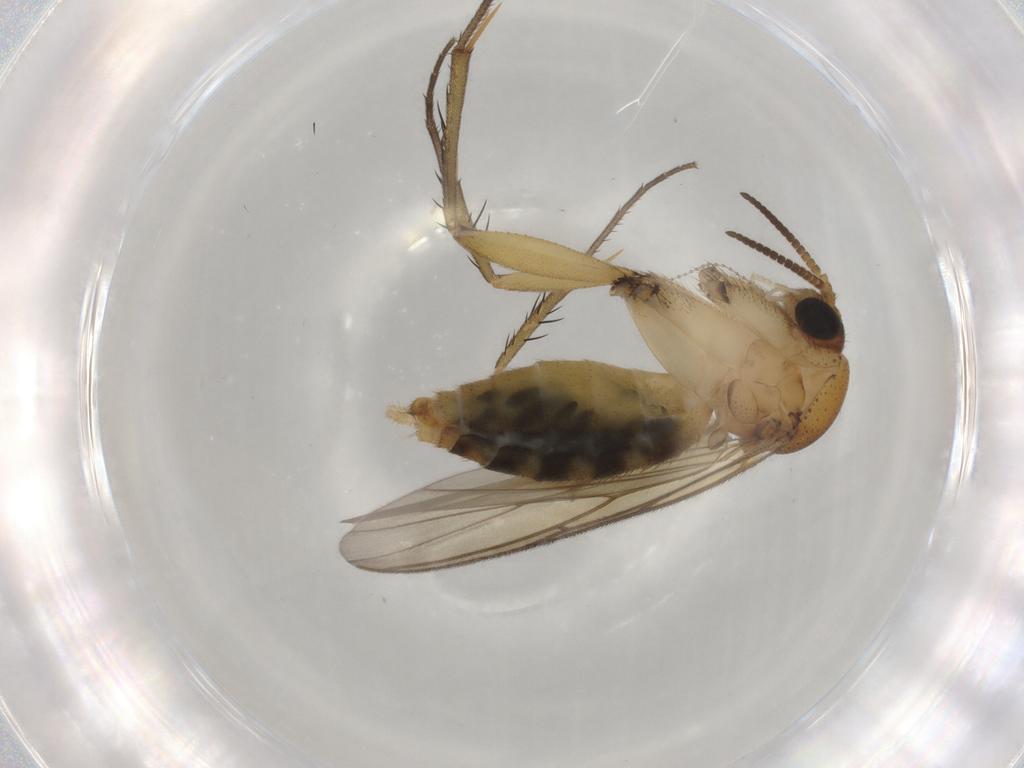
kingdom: Animalia
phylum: Arthropoda
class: Insecta
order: Diptera
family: Mycetophilidae
